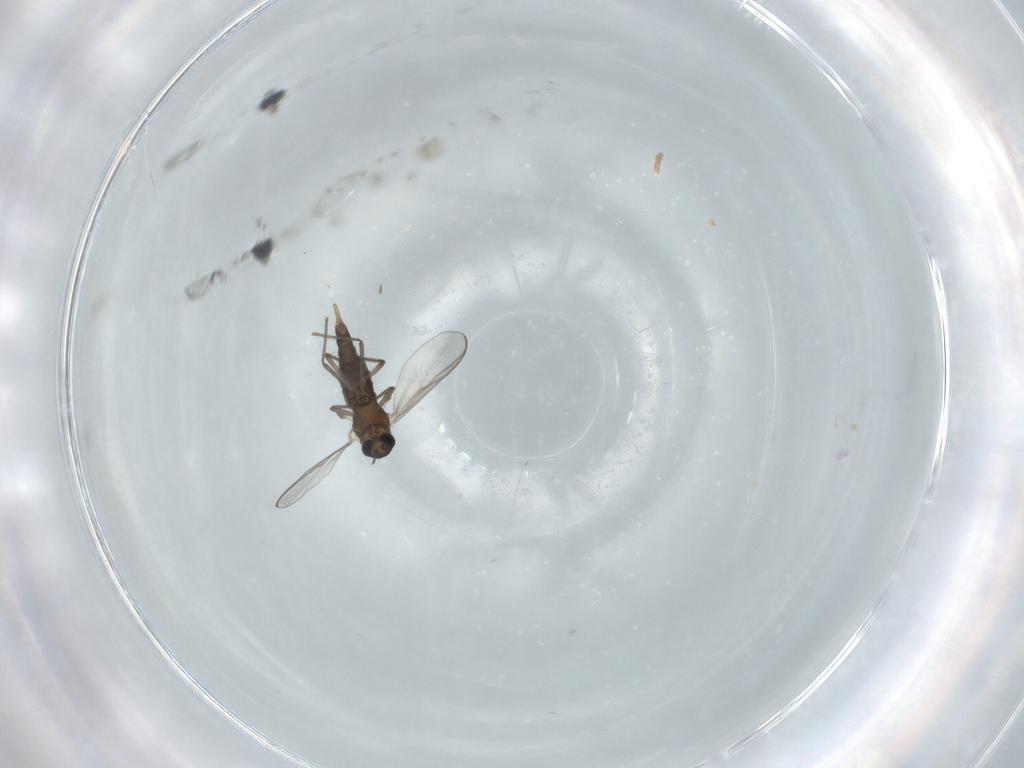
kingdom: Animalia
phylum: Arthropoda
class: Insecta
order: Diptera
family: Chironomidae
